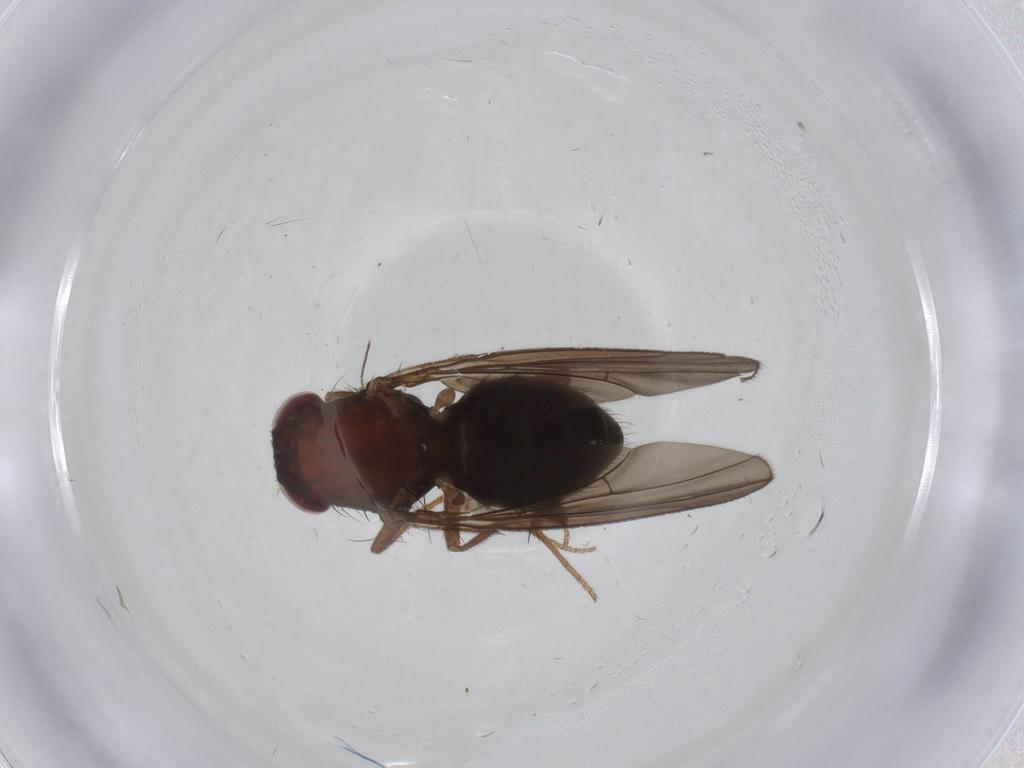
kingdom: Animalia
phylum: Arthropoda
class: Insecta
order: Diptera
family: Drosophilidae
